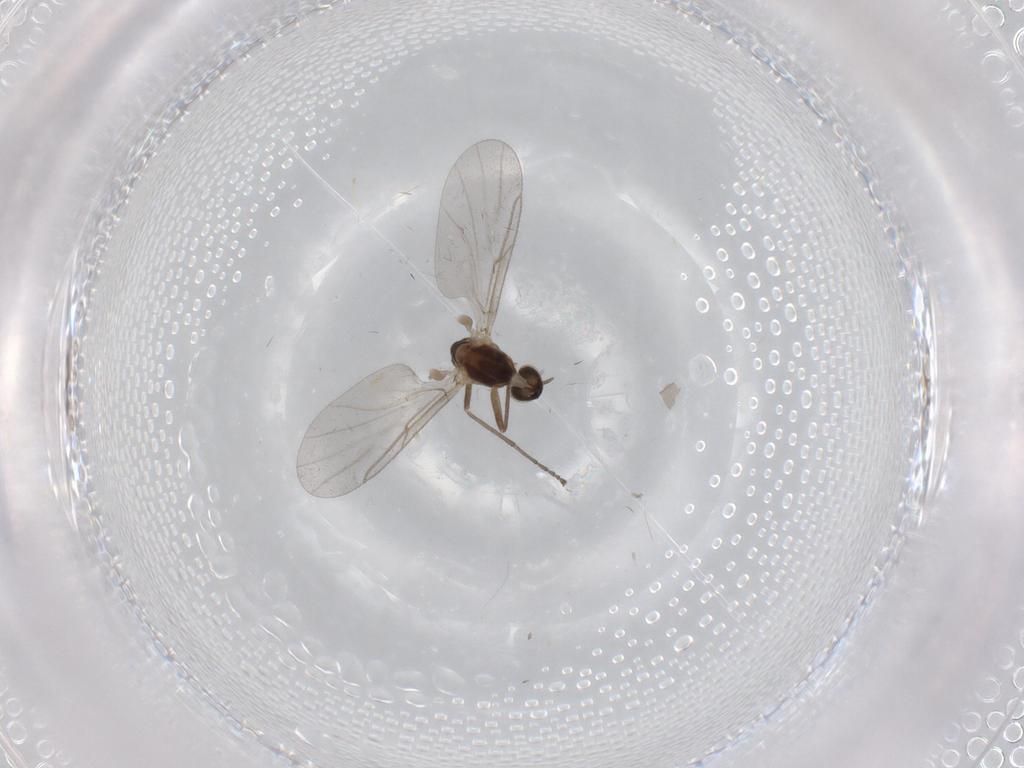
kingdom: Animalia
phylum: Arthropoda
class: Insecta
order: Diptera
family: Cecidomyiidae
